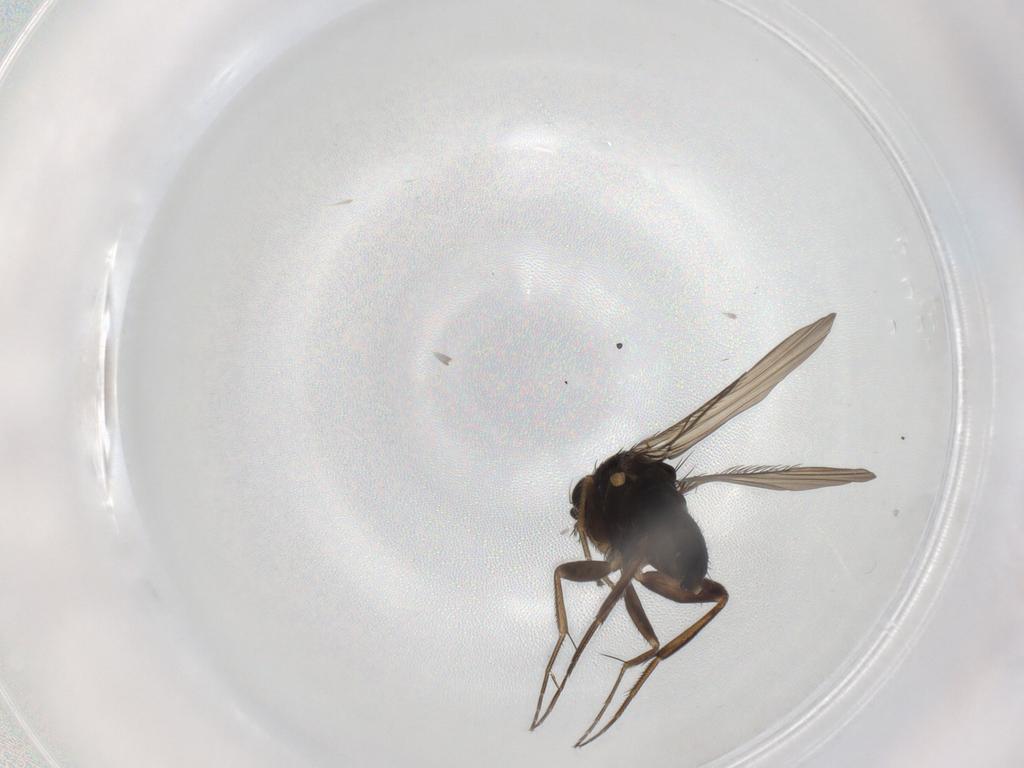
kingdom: Animalia
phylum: Arthropoda
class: Insecta
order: Diptera
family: Phoridae
